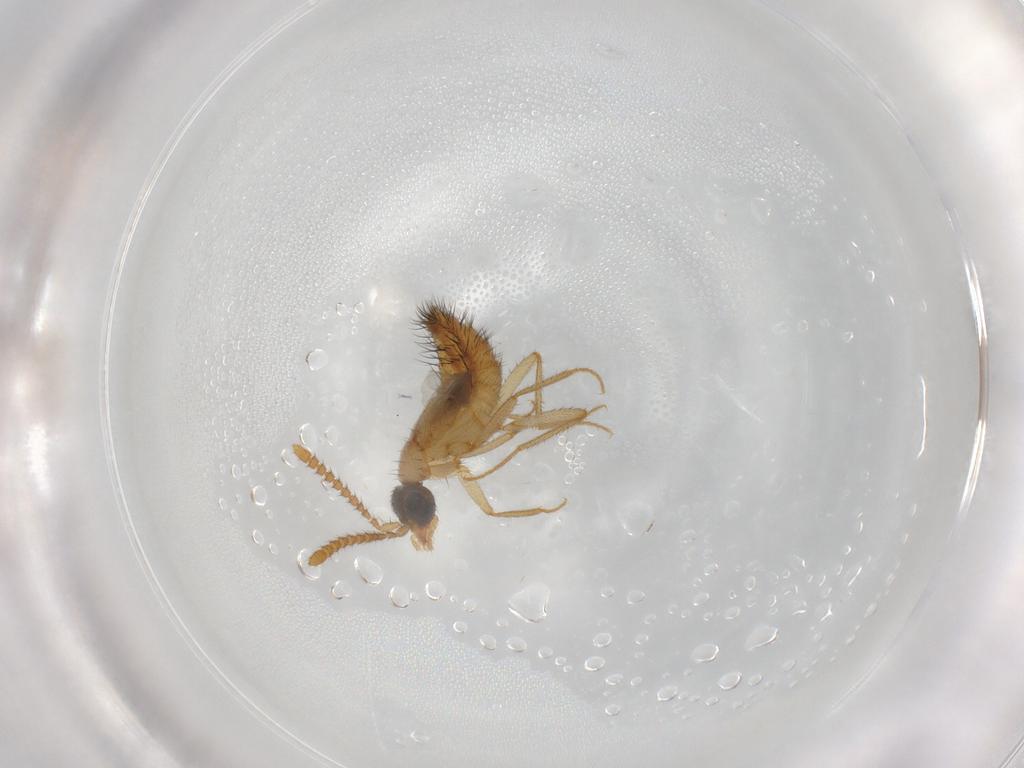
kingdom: Animalia
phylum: Arthropoda
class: Insecta
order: Coleoptera
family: Staphylinidae
